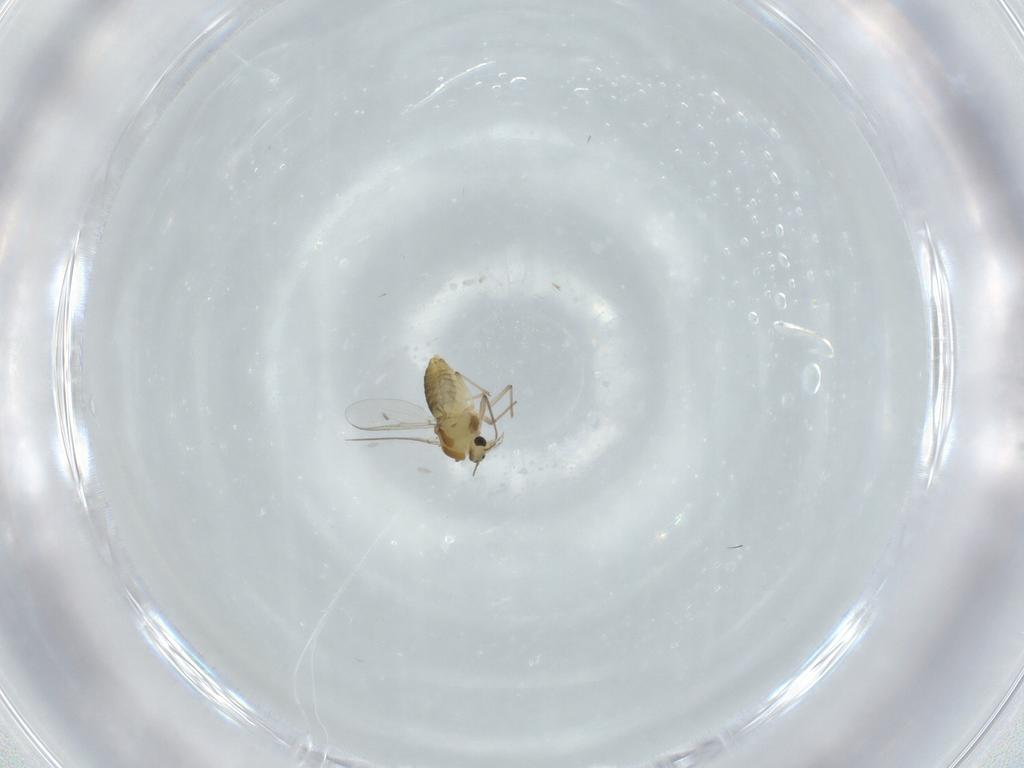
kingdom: Animalia
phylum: Arthropoda
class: Insecta
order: Diptera
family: Chironomidae
